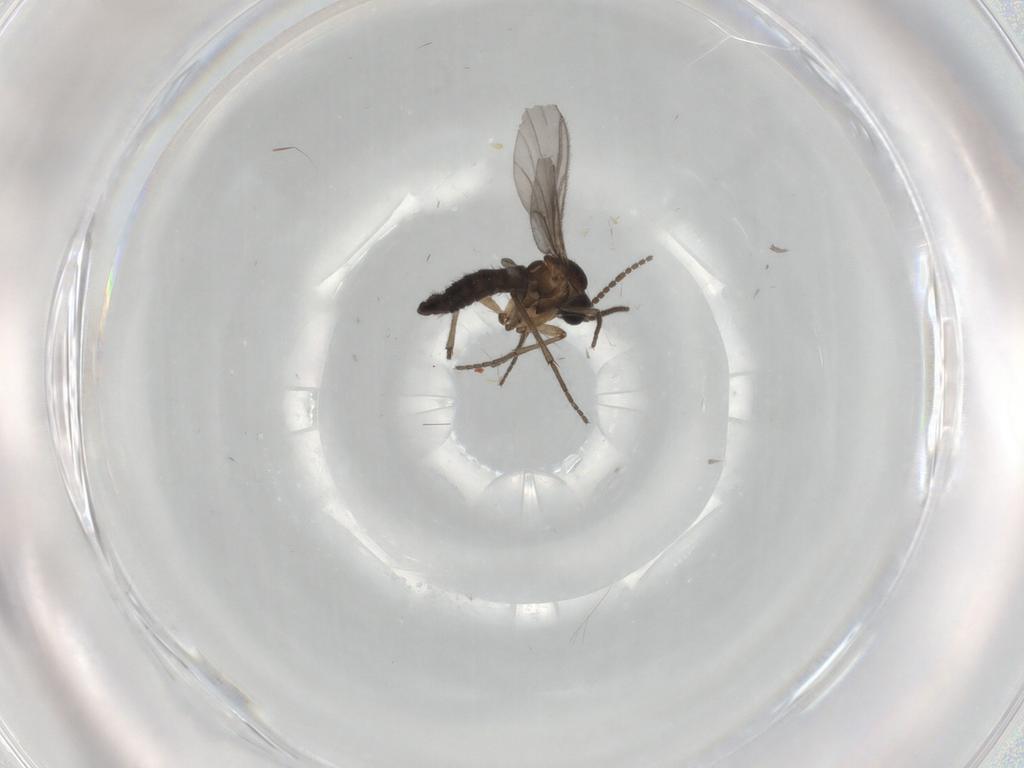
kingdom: Animalia
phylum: Arthropoda
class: Insecta
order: Diptera
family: Sciaridae
